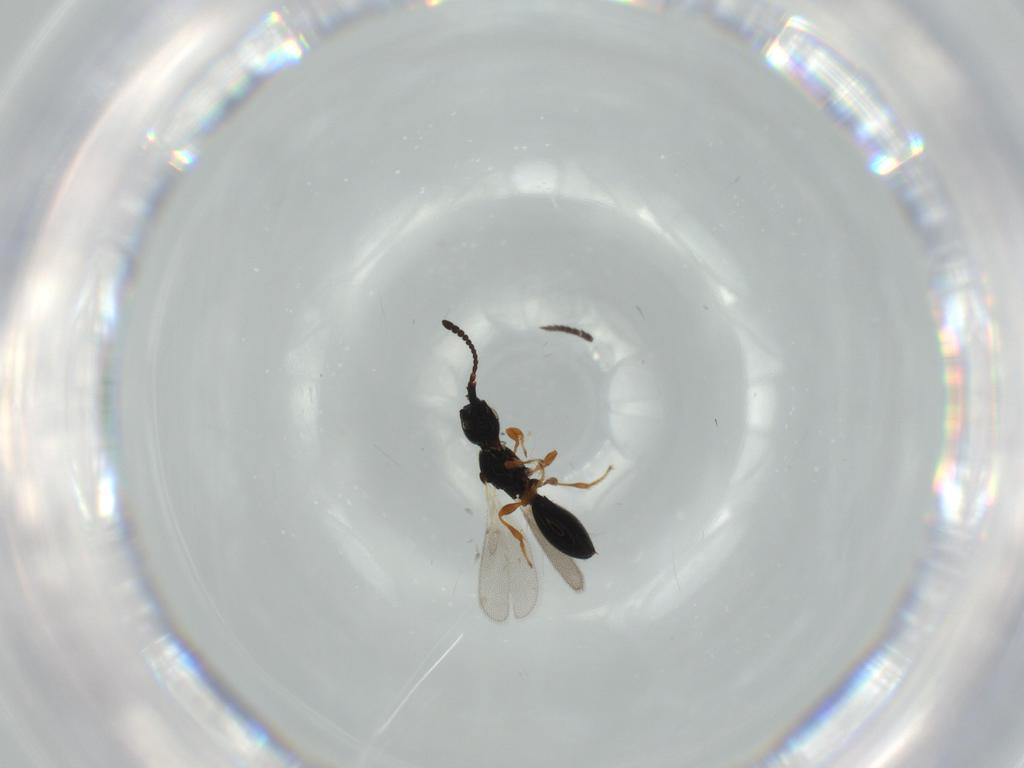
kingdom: Animalia
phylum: Arthropoda
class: Insecta
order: Hymenoptera
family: Diapriidae
